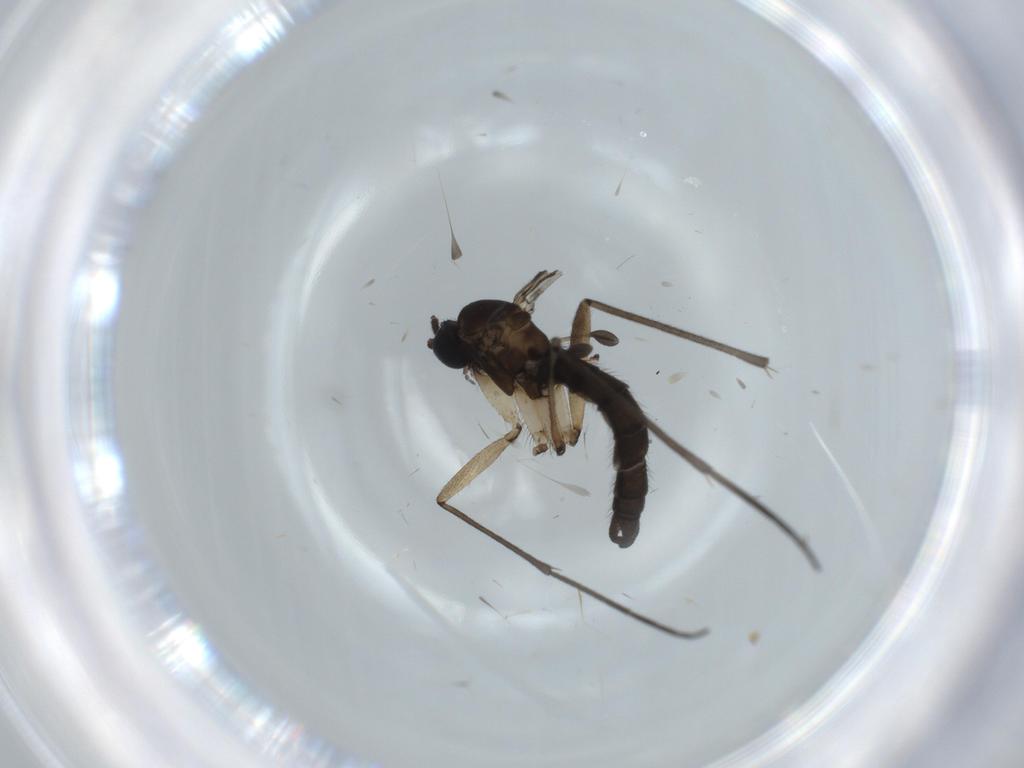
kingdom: Animalia
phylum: Arthropoda
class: Insecta
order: Diptera
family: Sciaridae
